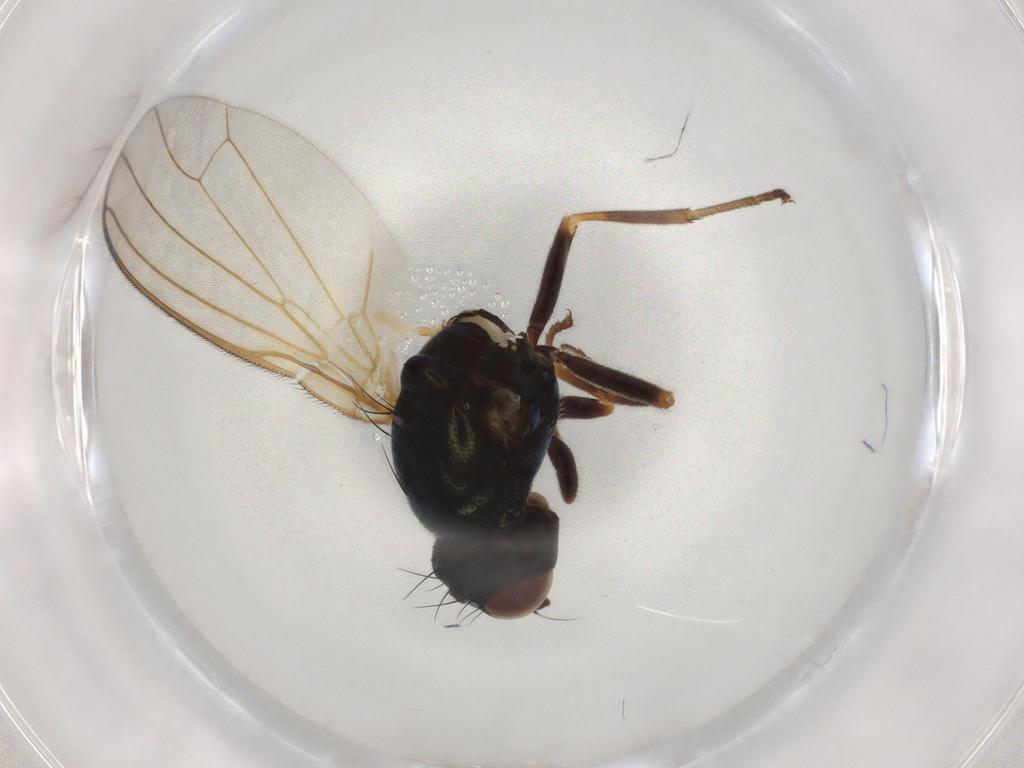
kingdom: Animalia
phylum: Arthropoda
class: Insecta
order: Diptera
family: Psilidae
